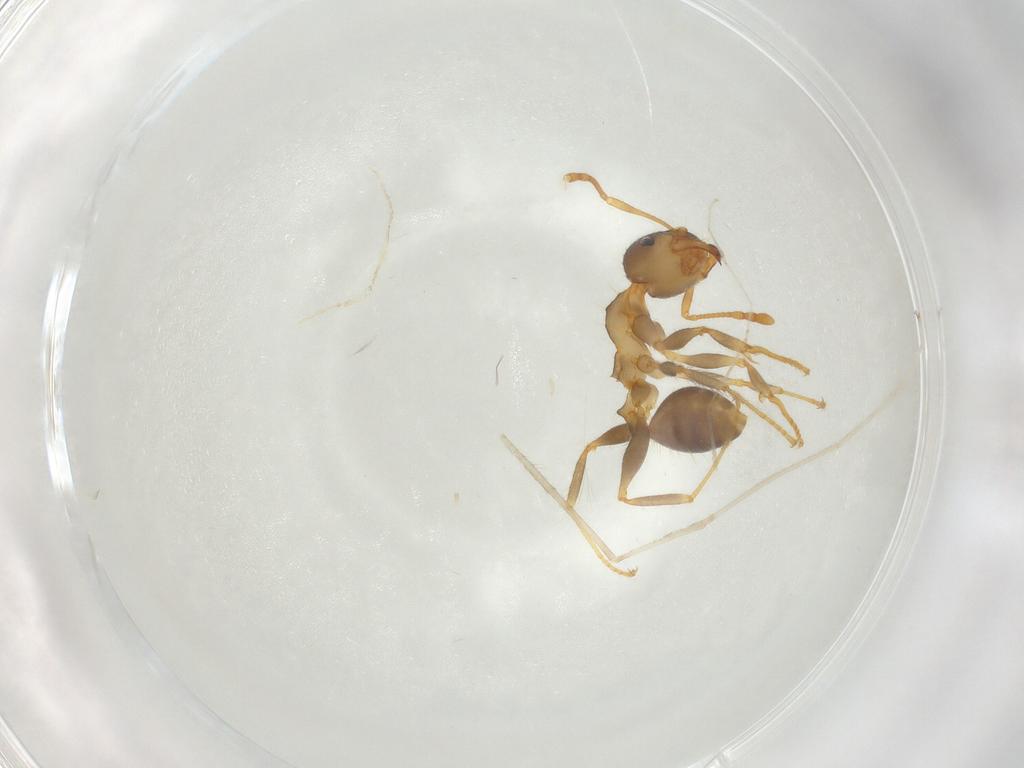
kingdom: Animalia
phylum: Arthropoda
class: Insecta
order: Hymenoptera
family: Formicidae
